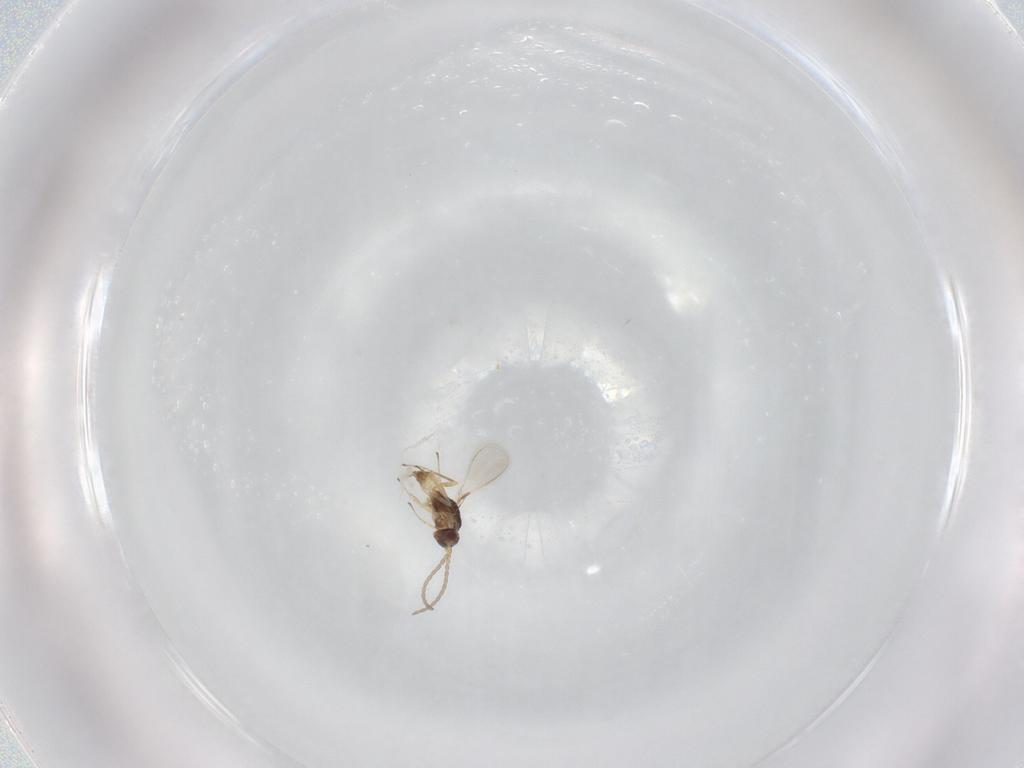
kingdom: Animalia
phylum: Arthropoda
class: Insecta
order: Hymenoptera
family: Mymaridae
